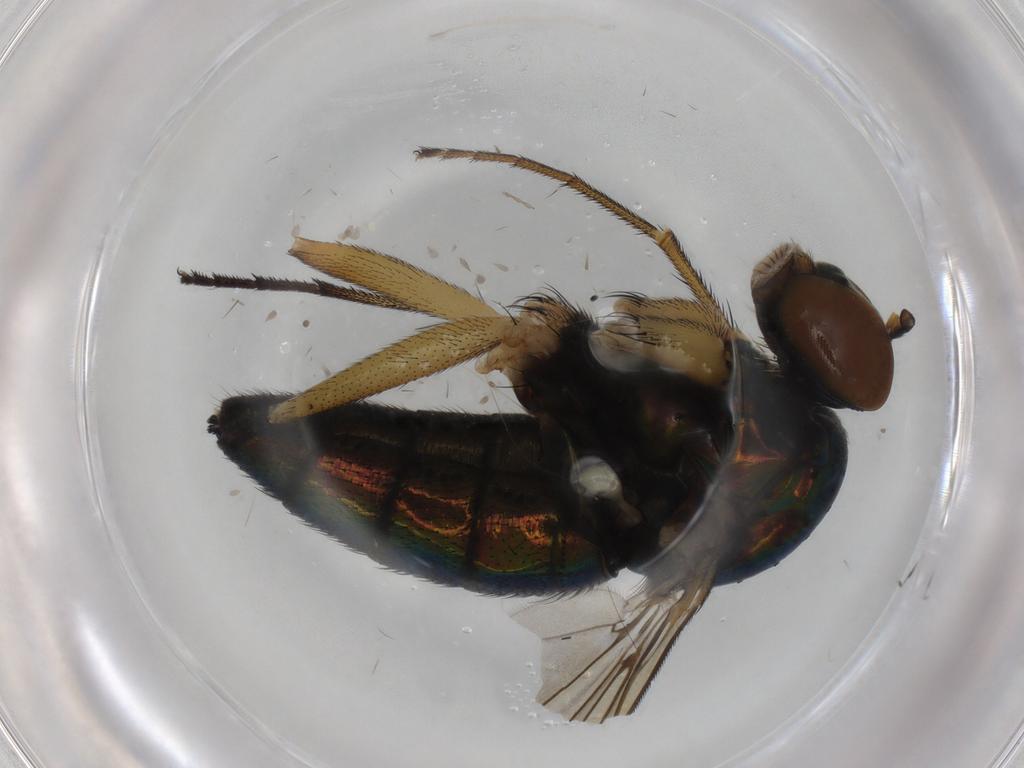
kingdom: Animalia
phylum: Arthropoda
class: Insecta
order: Diptera
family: Dolichopodidae
